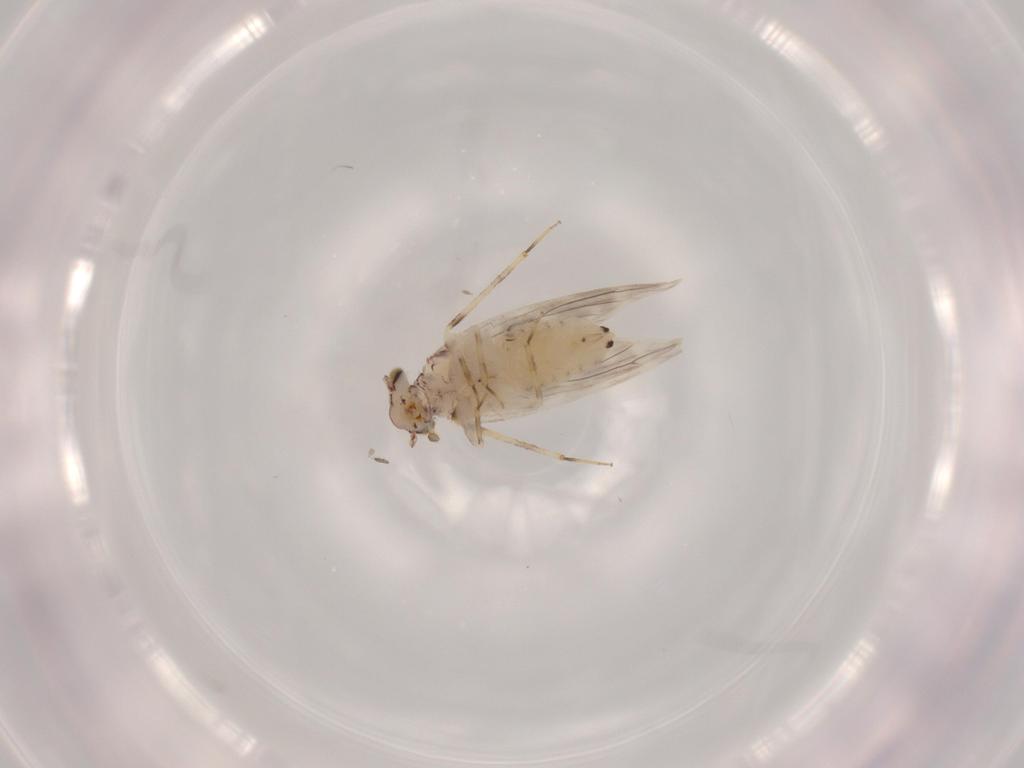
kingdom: Animalia
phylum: Arthropoda
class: Insecta
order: Psocodea
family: Lepidopsocidae
